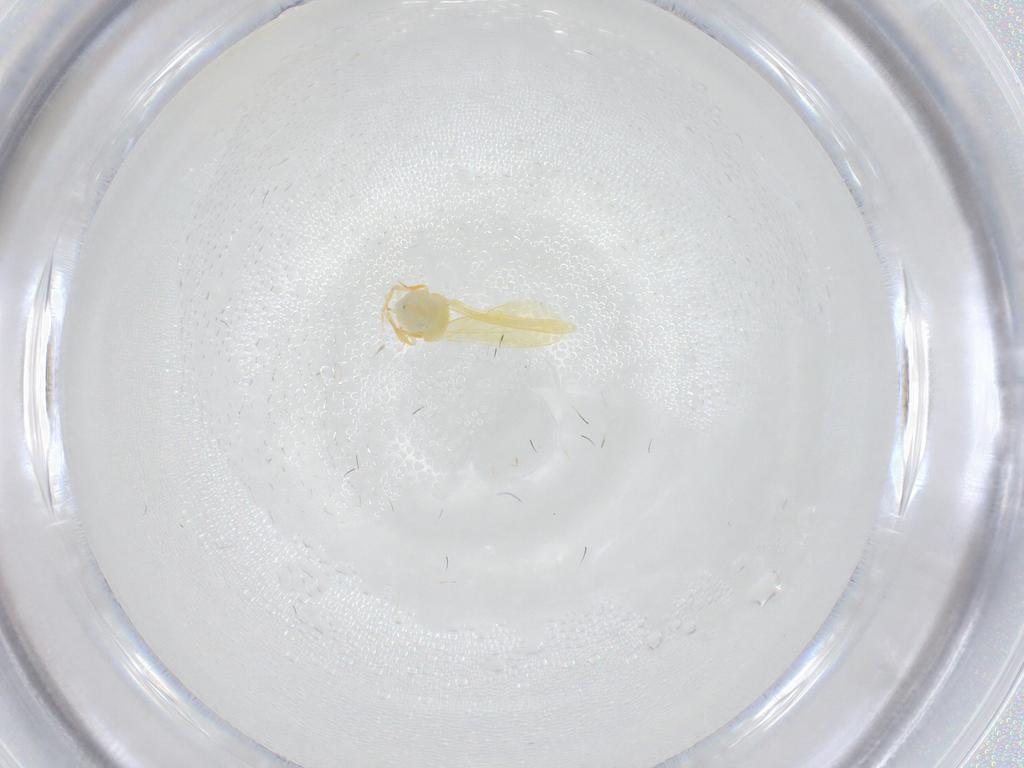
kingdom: Animalia
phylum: Arthropoda
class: Insecta
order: Hemiptera
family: Aleyrodidae
